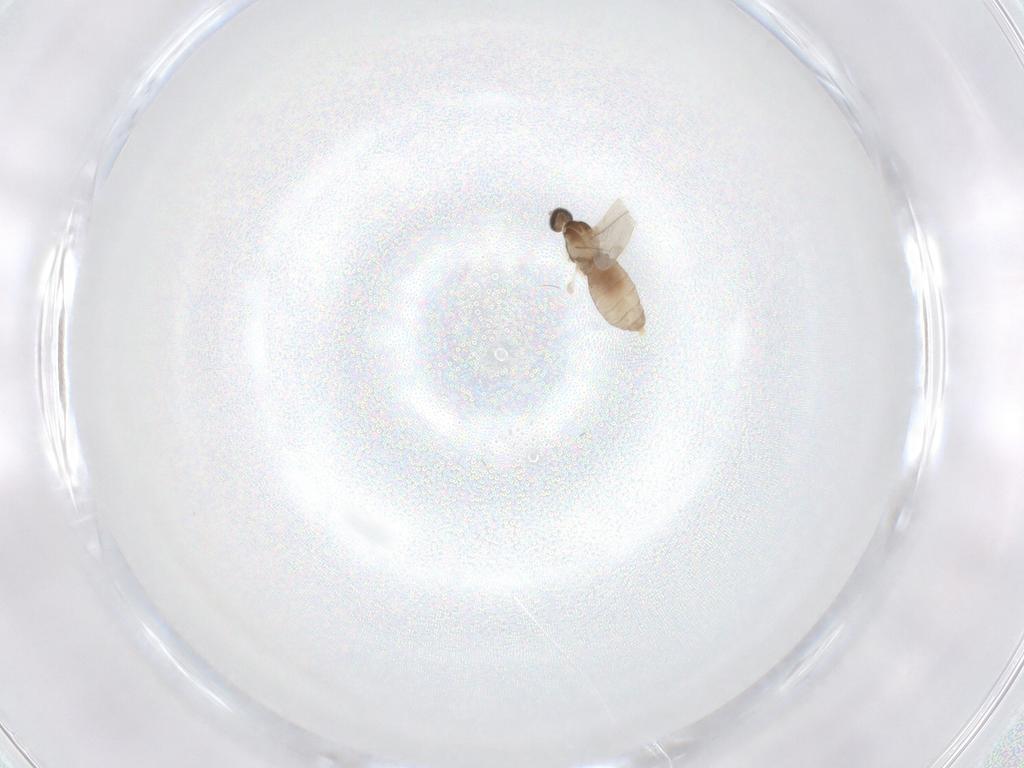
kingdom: Animalia
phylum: Arthropoda
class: Insecta
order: Diptera
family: Cecidomyiidae
